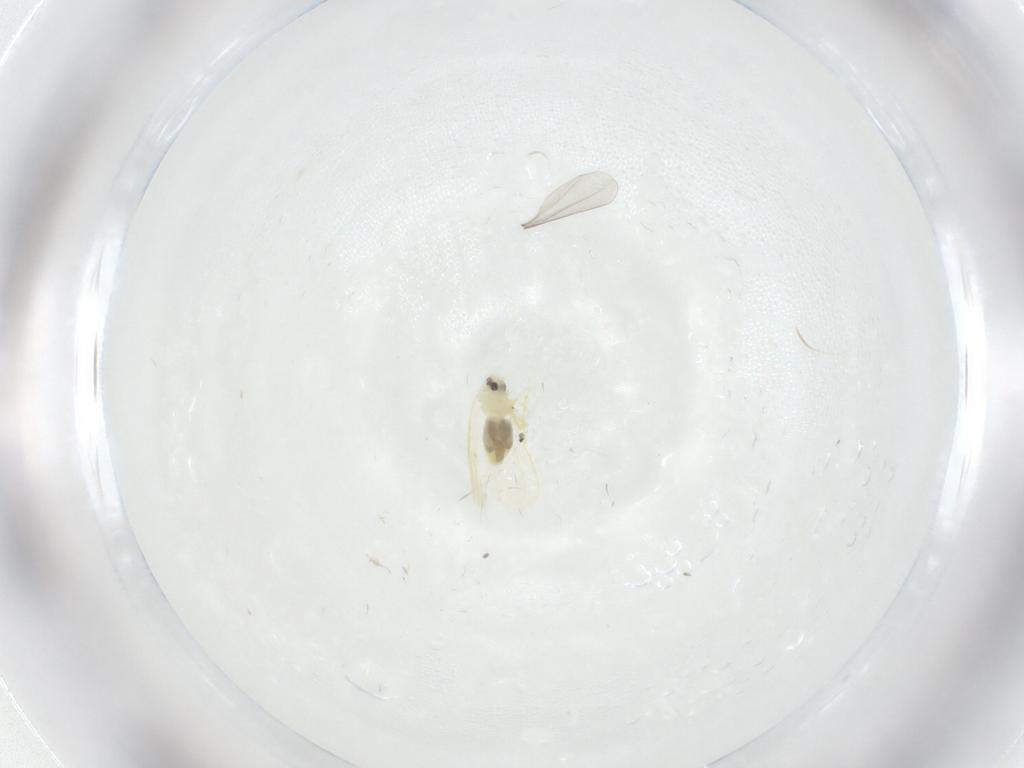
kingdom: Animalia
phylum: Arthropoda
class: Insecta
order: Hemiptera
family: Aleyrodidae
